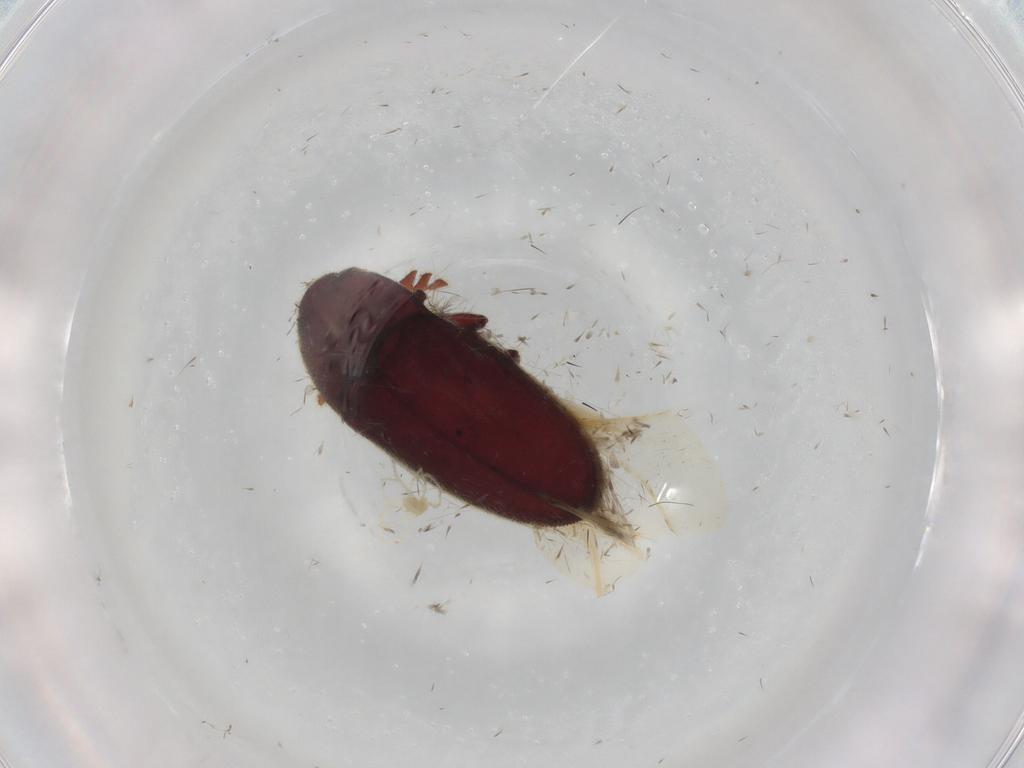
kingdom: Animalia
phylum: Arthropoda
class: Arachnida
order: Trombidiformes
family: Erythraeidae
